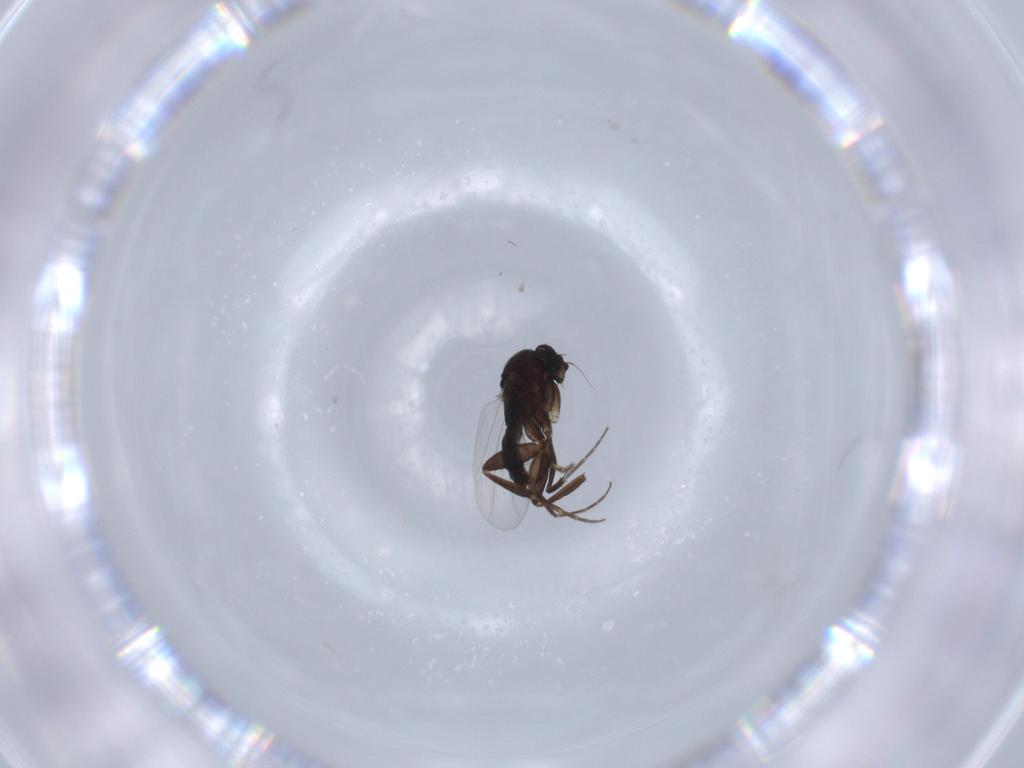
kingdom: Animalia
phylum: Arthropoda
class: Insecta
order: Diptera
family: Phoridae
